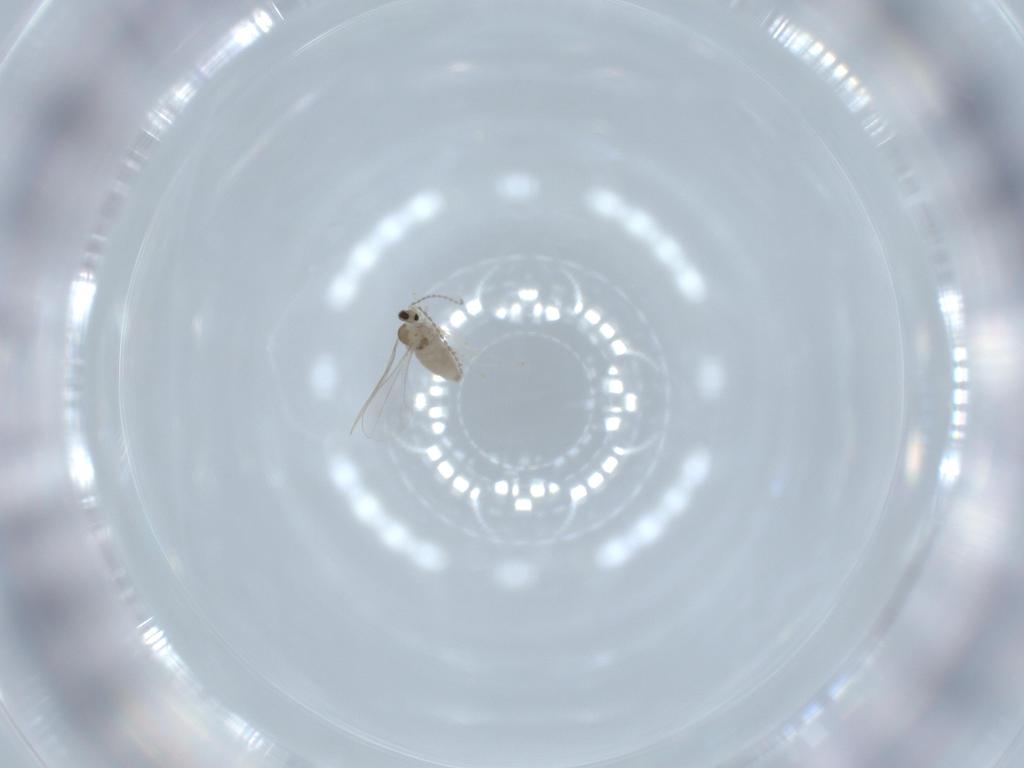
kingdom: Animalia
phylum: Arthropoda
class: Insecta
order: Diptera
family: Cecidomyiidae
